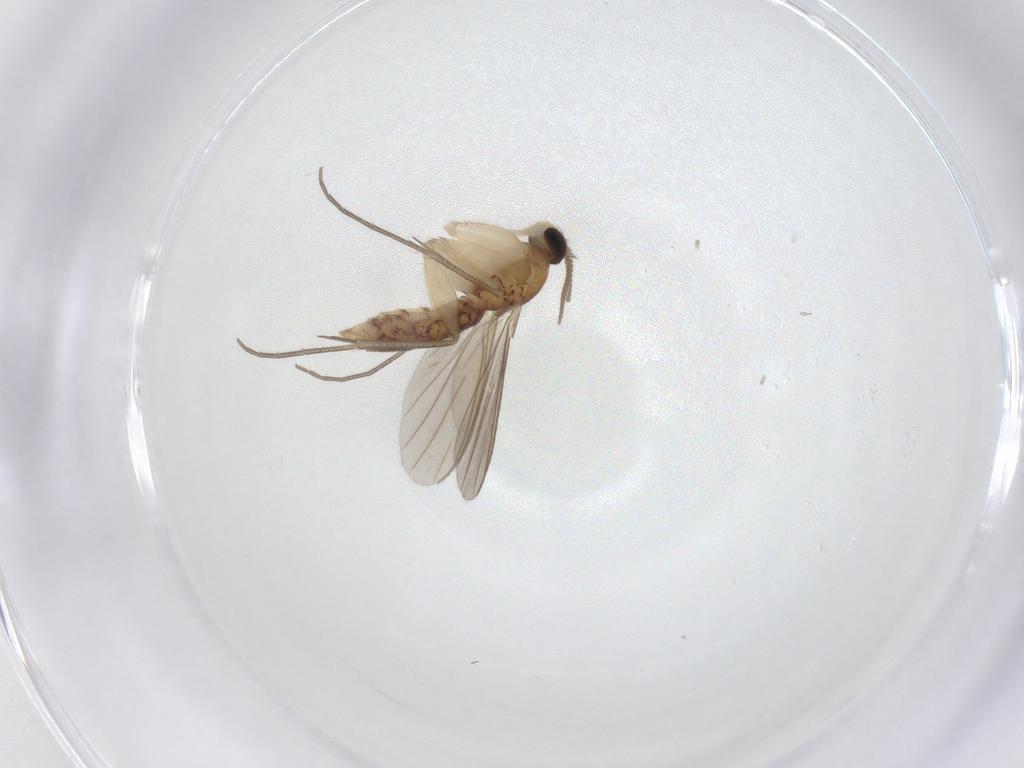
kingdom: Animalia
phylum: Arthropoda
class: Insecta
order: Diptera
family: Mycetophilidae
